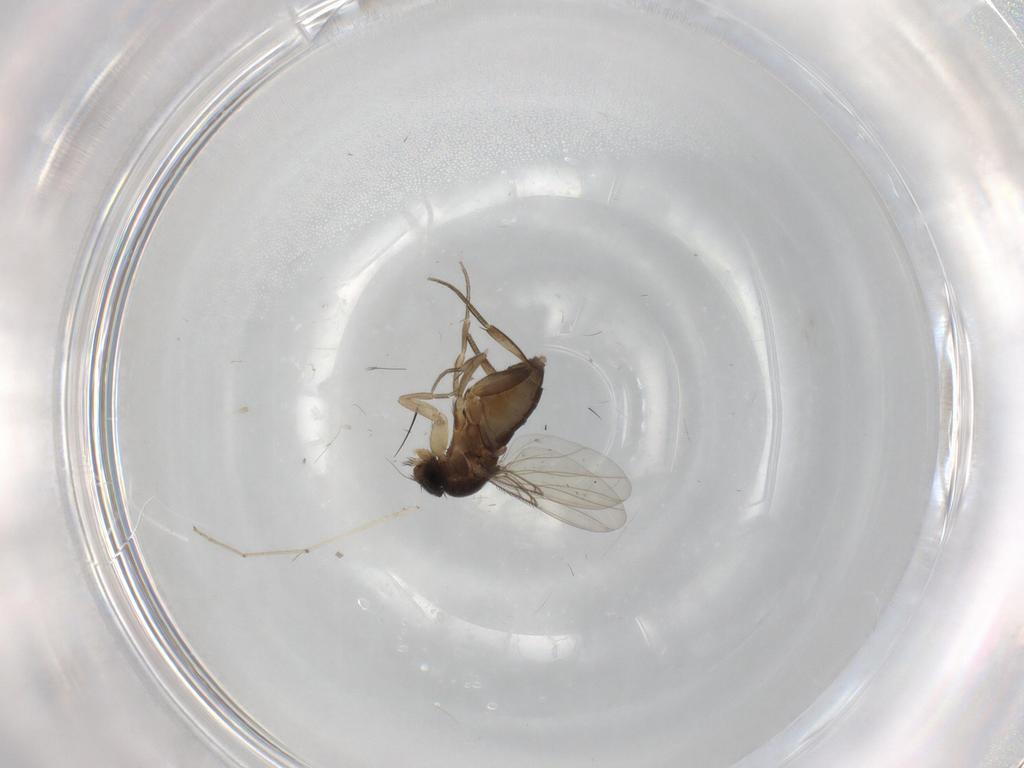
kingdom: Animalia
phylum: Arthropoda
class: Insecta
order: Diptera
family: Phoridae
